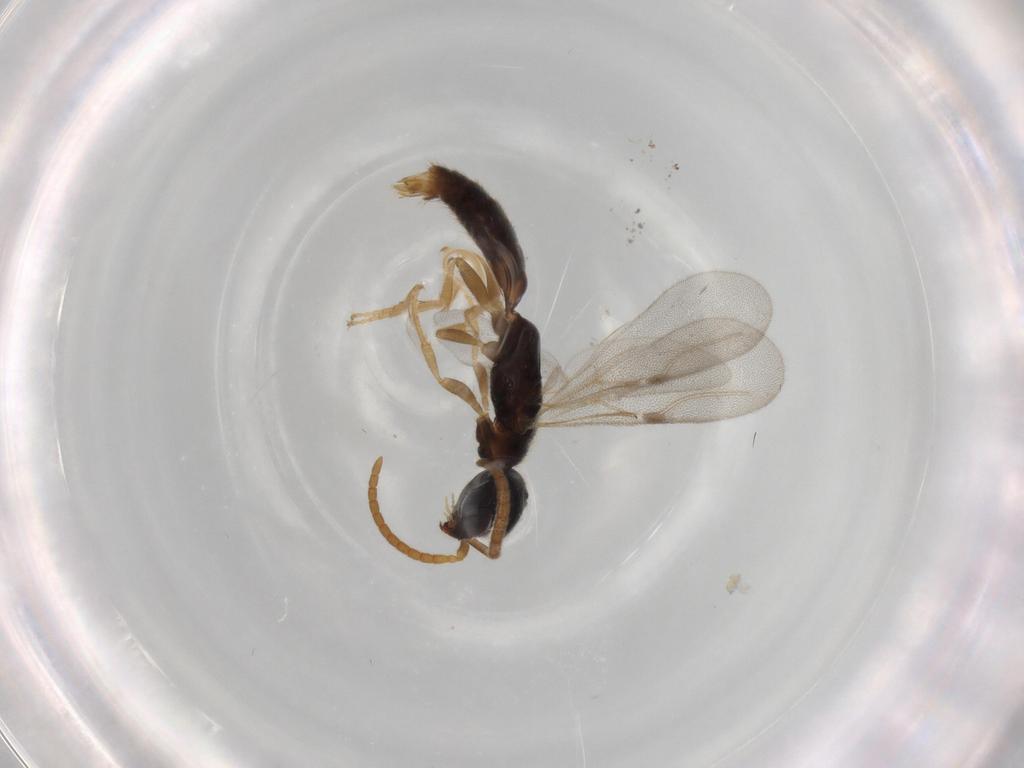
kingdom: Animalia
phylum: Arthropoda
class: Insecta
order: Hymenoptera
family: Bethylidae
